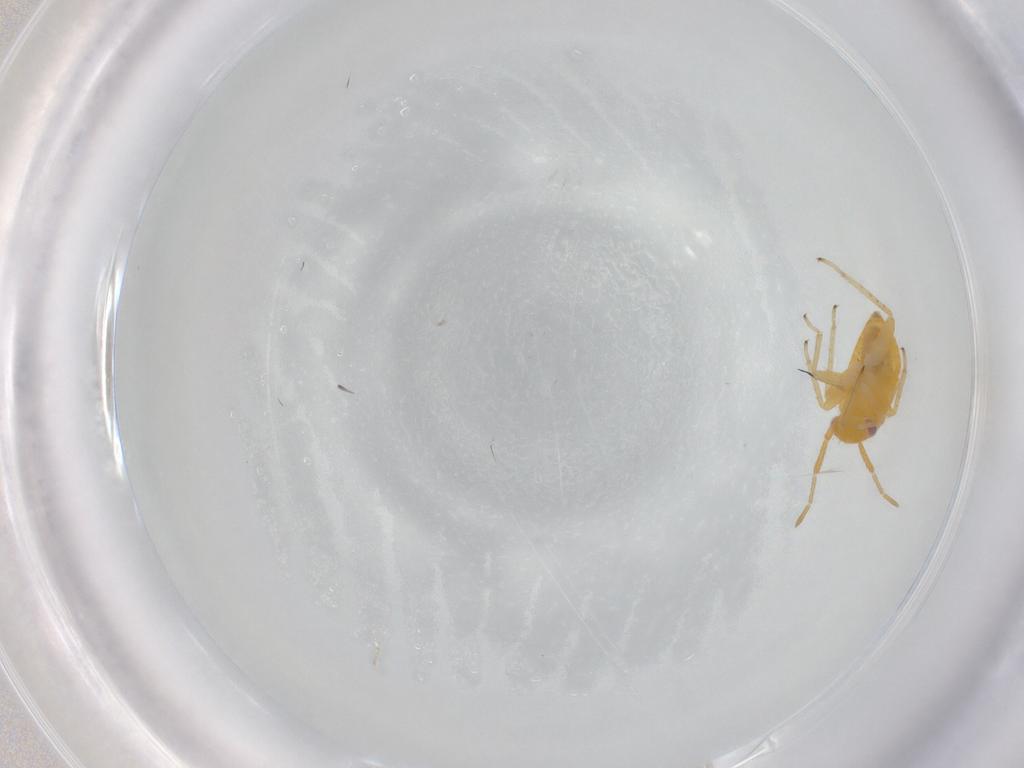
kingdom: Animalia
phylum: Arthropoda
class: Insecta
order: Hemiptera
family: Miridae
